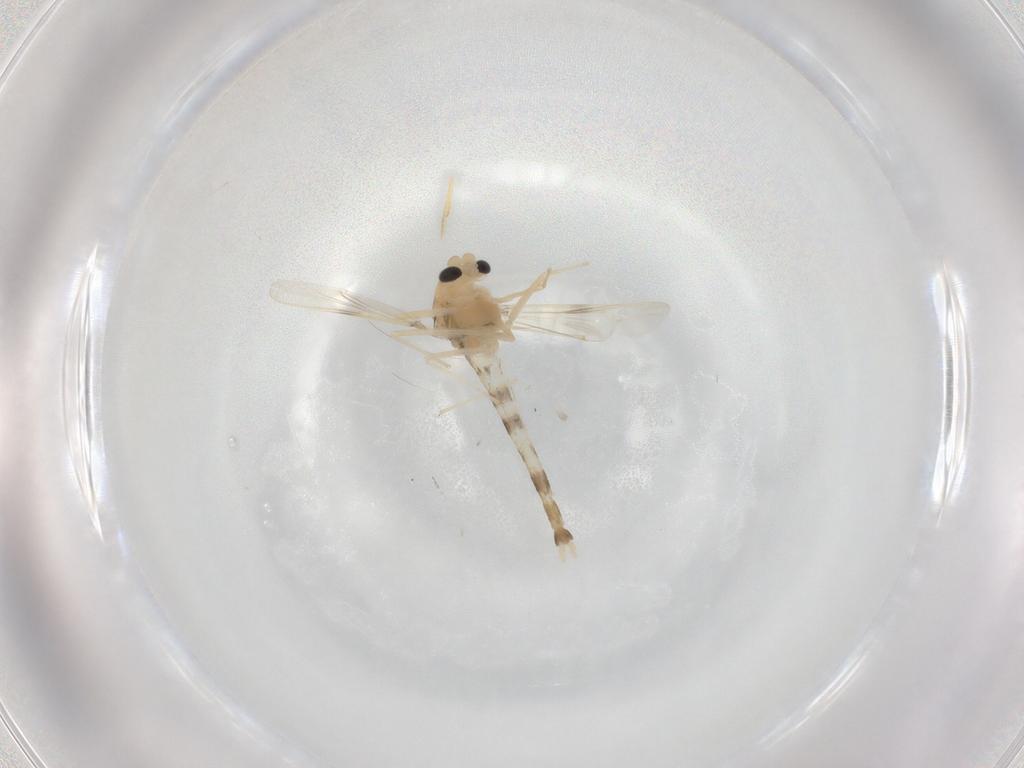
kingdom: Animalia
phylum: Arthropoda
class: Insecta
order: Diptera
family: Chironomidae
